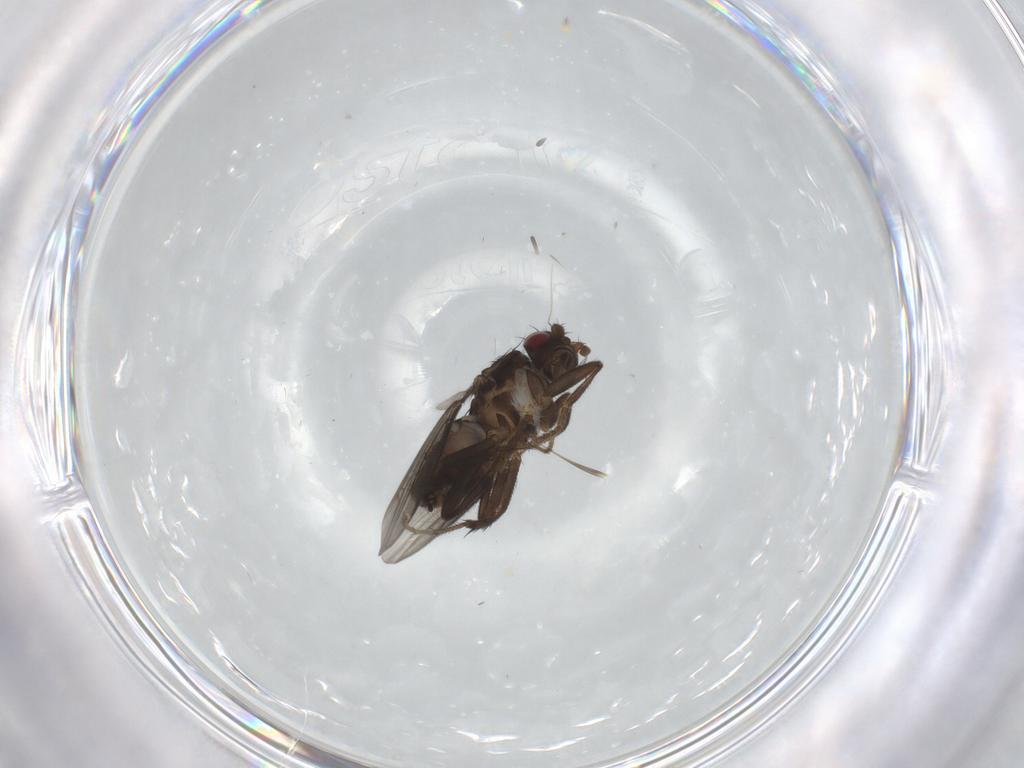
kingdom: Animalia
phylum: Arthropoda
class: Insecta
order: Diptera
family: Sphaeroceridae
